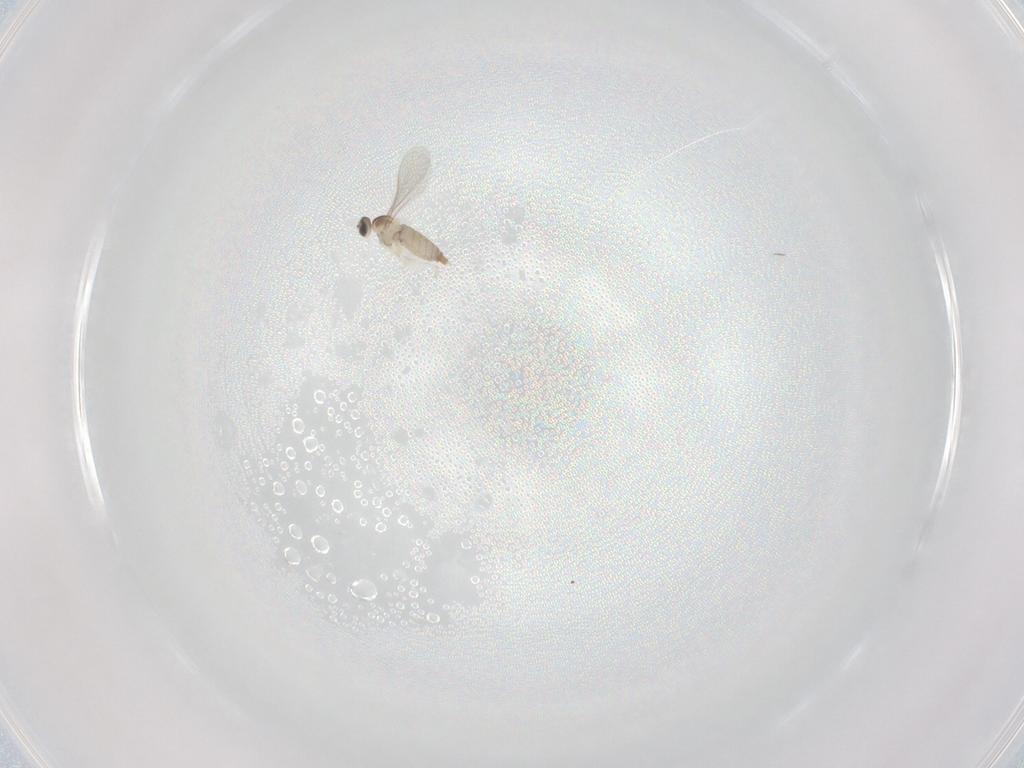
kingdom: Animalia
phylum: Arthropoda
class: Insecta
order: Diptera
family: Ceratopogonidae
